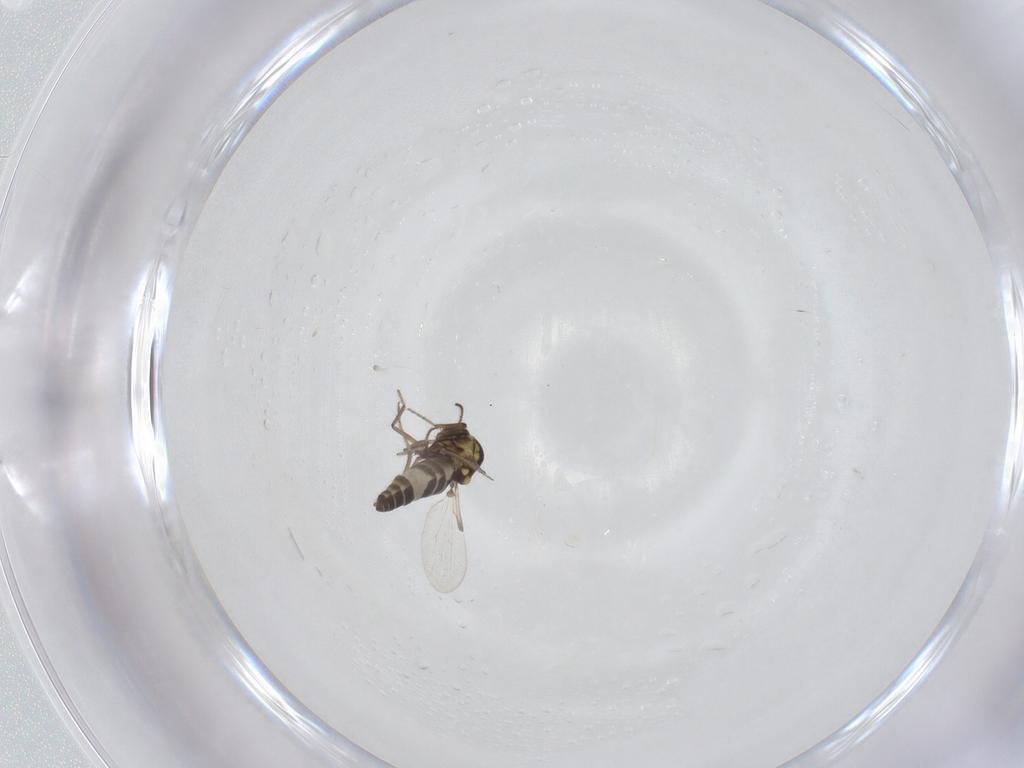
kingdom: Animalia
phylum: Arthropoda
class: Insecta
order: Diptera
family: Ceratopogonidae
